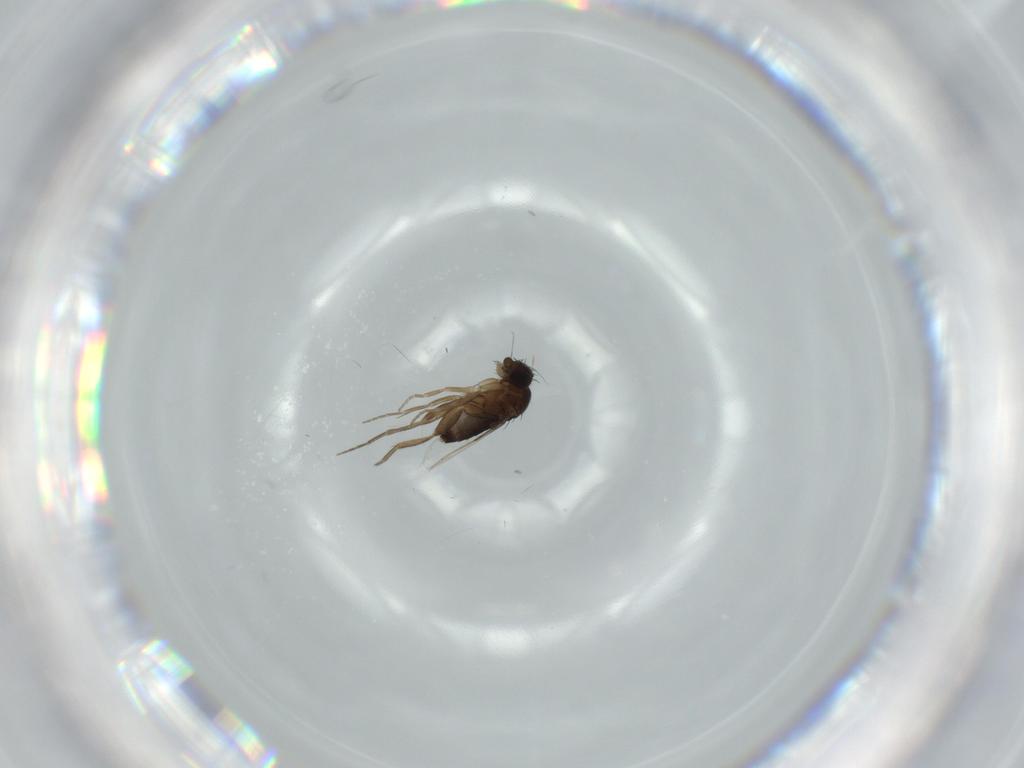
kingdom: Animalia
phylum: Arthropoda
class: Insecta
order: Diptera
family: Phoridae
